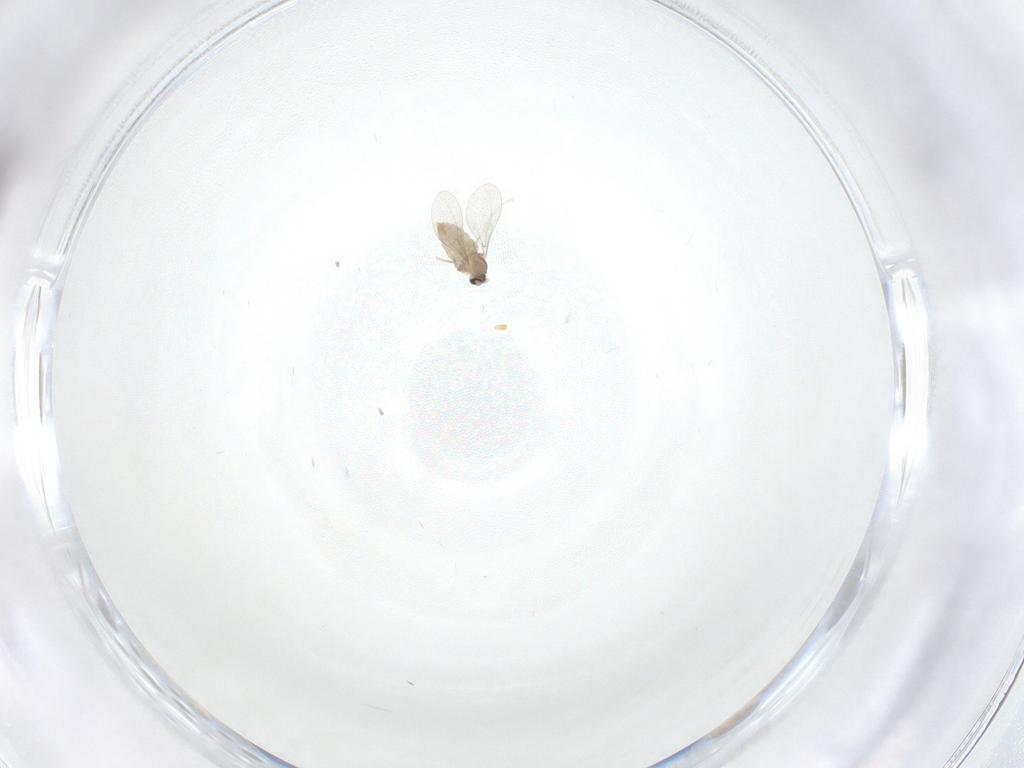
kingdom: Animalia
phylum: Arthropoda
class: Insecta
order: Diptera
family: Cecidomyiidae
